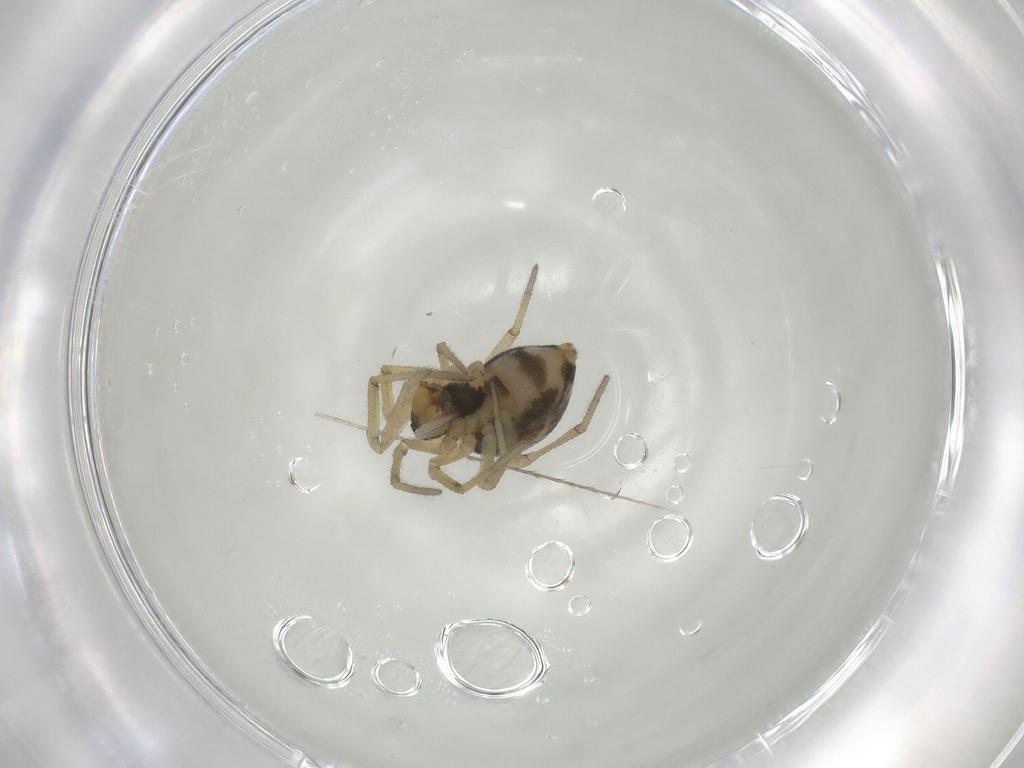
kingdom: Animalia
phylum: Arthropoda
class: Arachnida
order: Araneae
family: Linyphiidae
